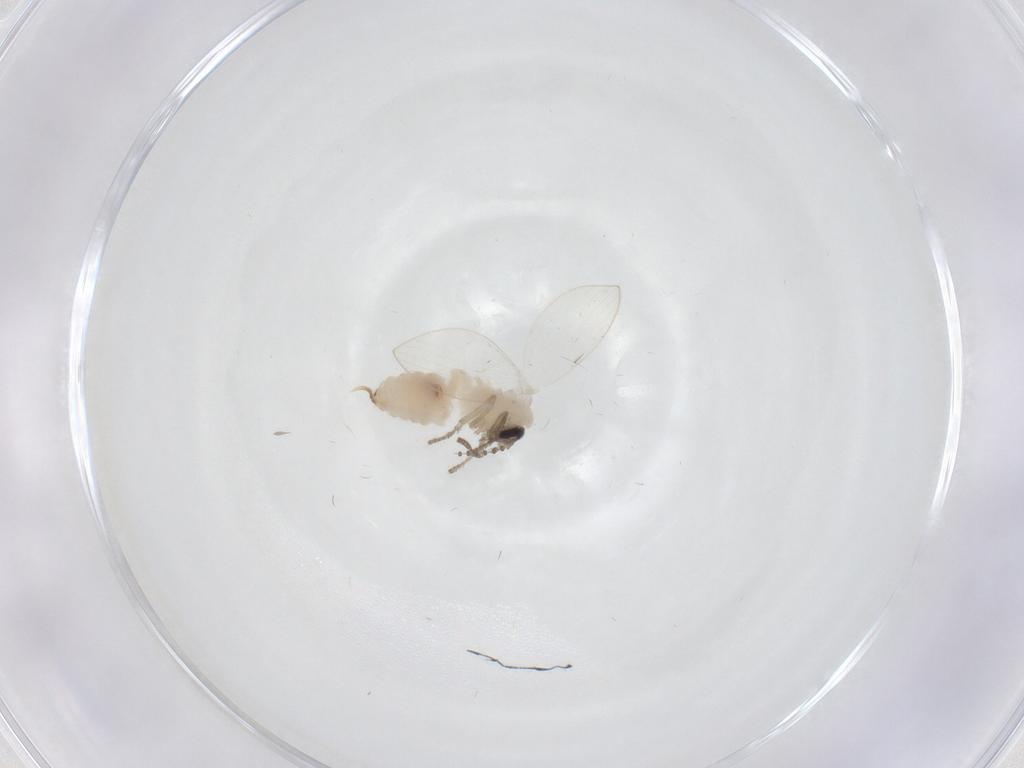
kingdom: Animalia
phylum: Arthropoda
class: Insecta
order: Diptera
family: Psychodidae
